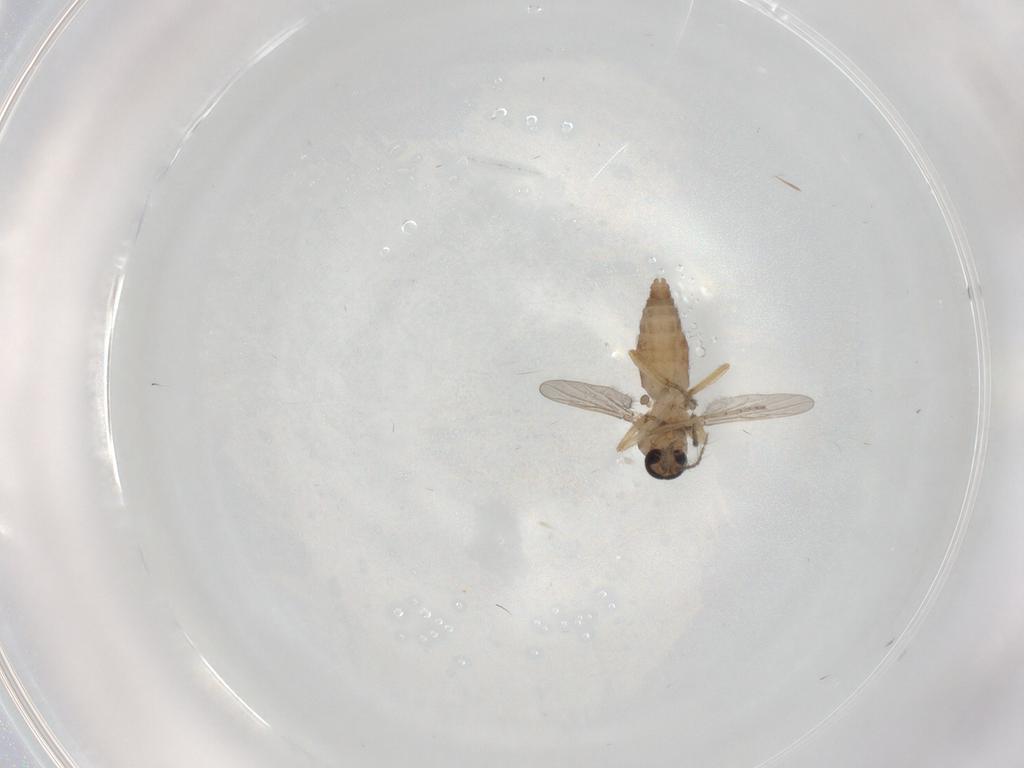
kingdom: Animalia
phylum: Arthropoda
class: Insecta
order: Diptera
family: Ceratopogonidae
